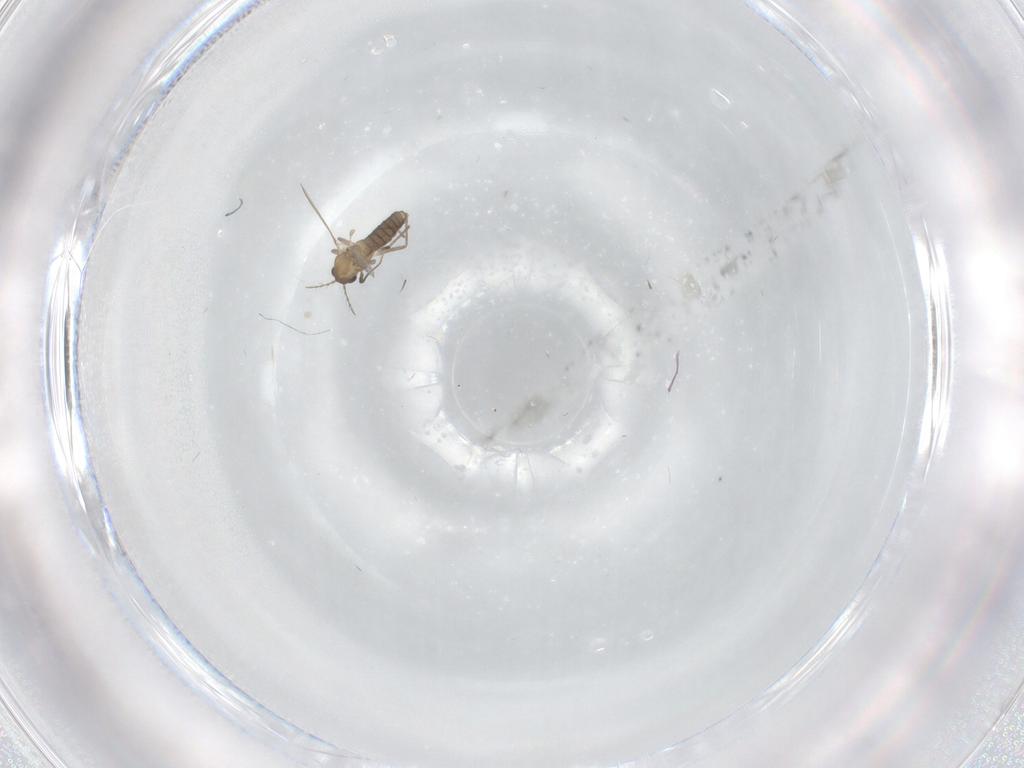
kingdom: Animalia
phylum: Arthropoda
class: Insecta
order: Diptera
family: Chironomidae
